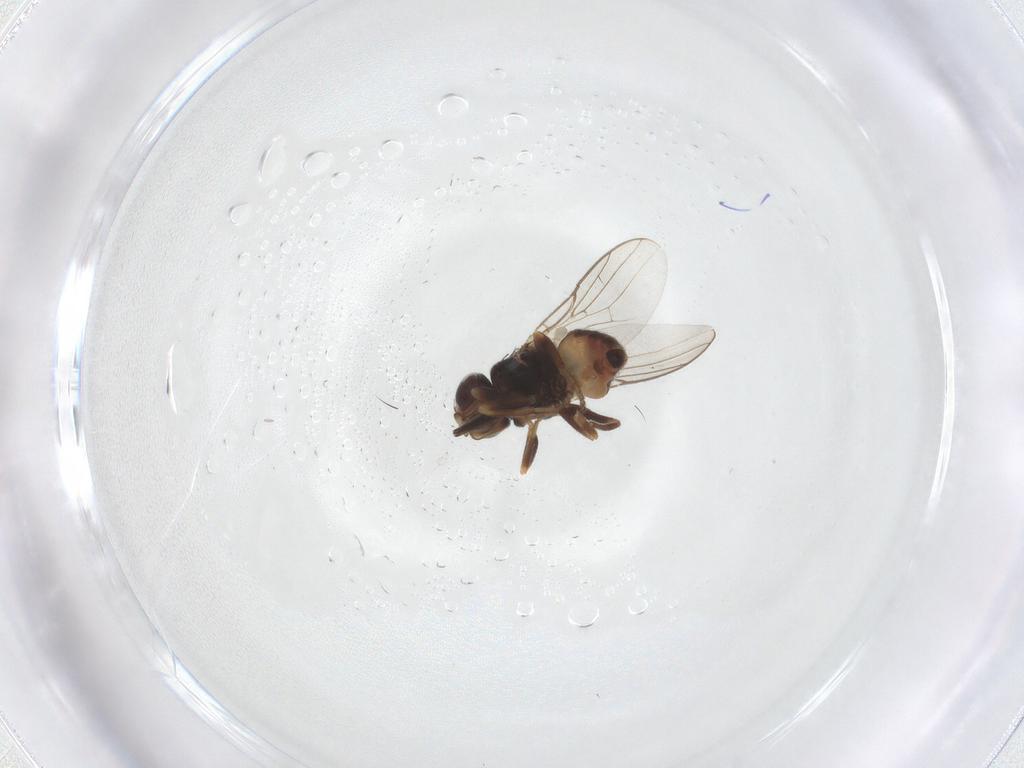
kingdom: Animalia
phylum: Arthropoda
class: Insecta
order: Diptera
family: Chloropidae
